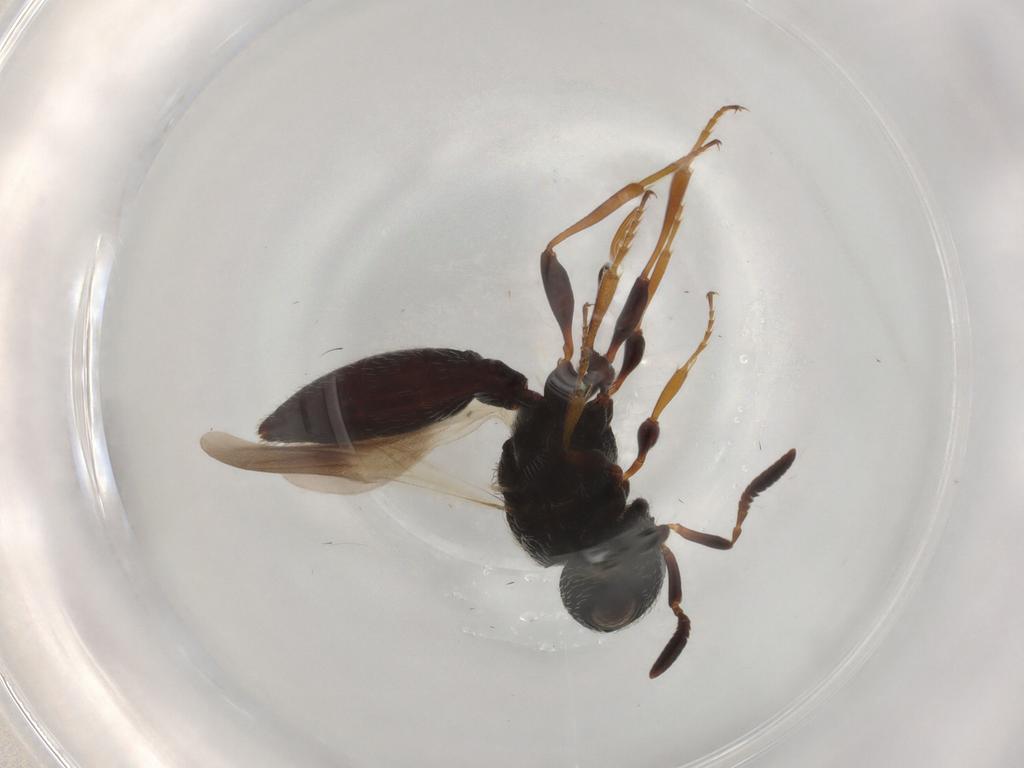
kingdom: Animalia
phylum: Arthropoda
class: Insecta
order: Hymenoptera
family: Scelionidae
